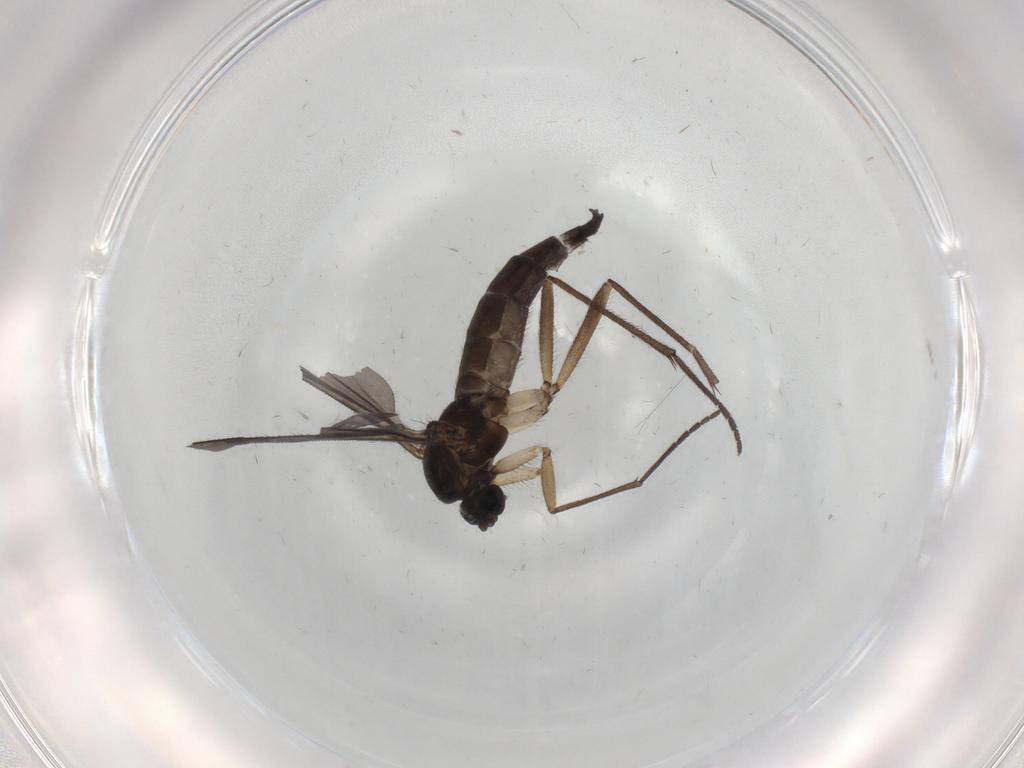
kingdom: Animalia
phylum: Arthropoda
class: Insecta
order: Diptera
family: Sciaridae
